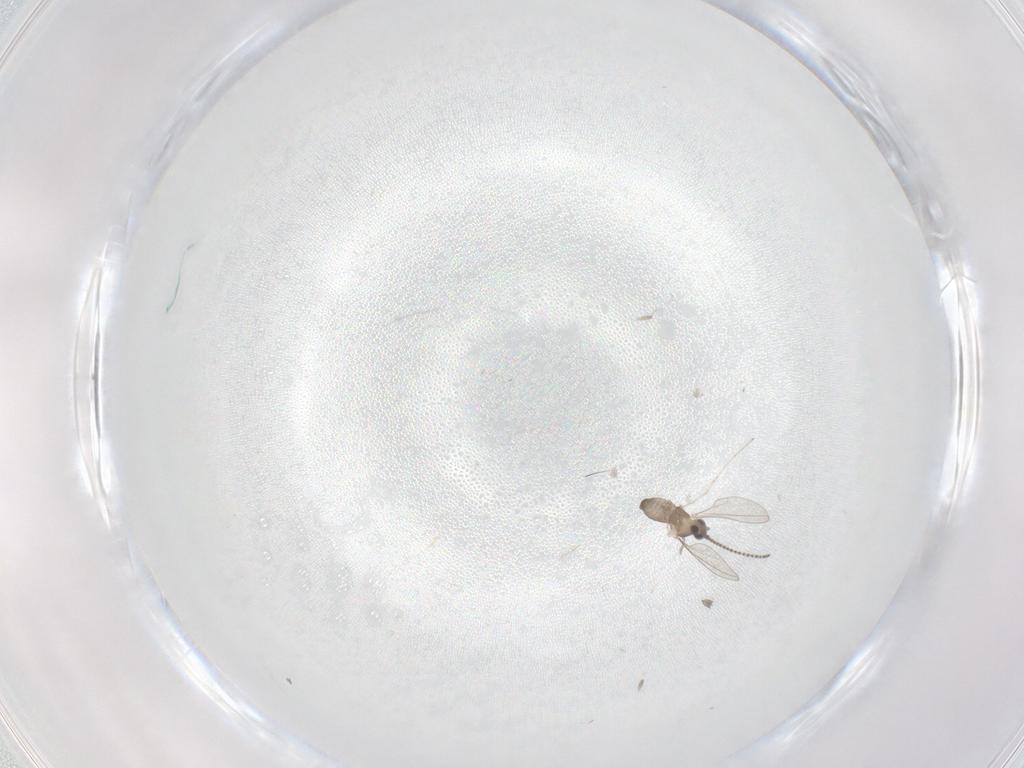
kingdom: Animalia
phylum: Arthropoda
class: Insecta
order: Diptera
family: Cecidomyiidae
